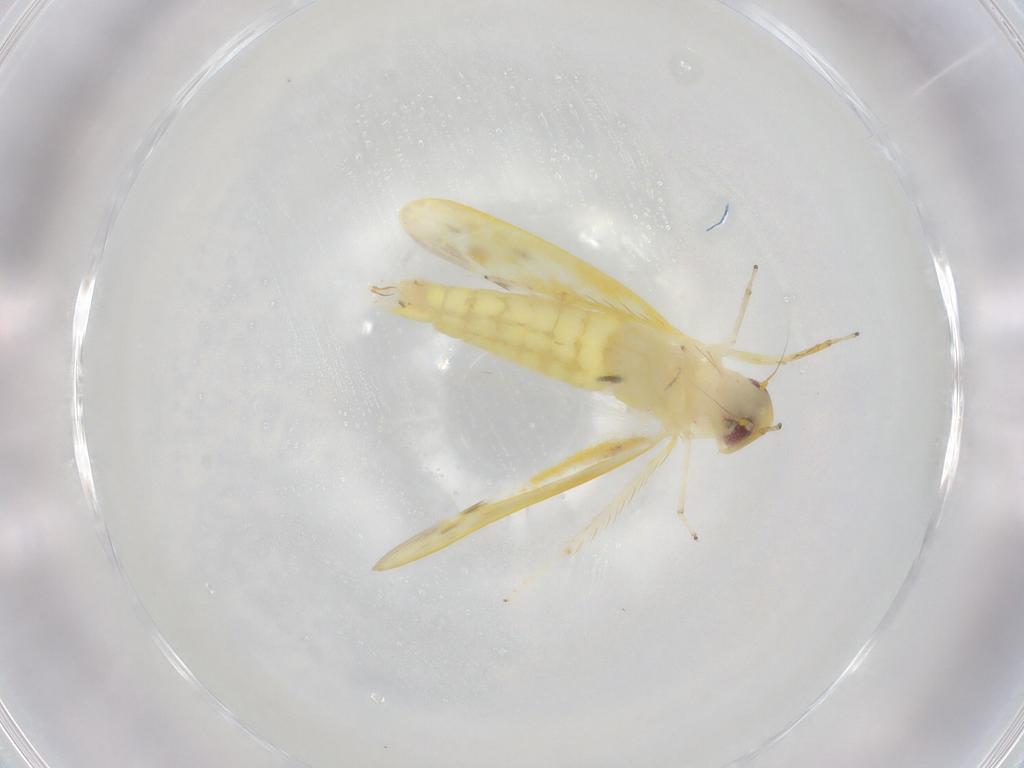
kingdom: Animalia
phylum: Arthropoda
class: Insecta
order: Hemiptera
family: Cicadellidae
